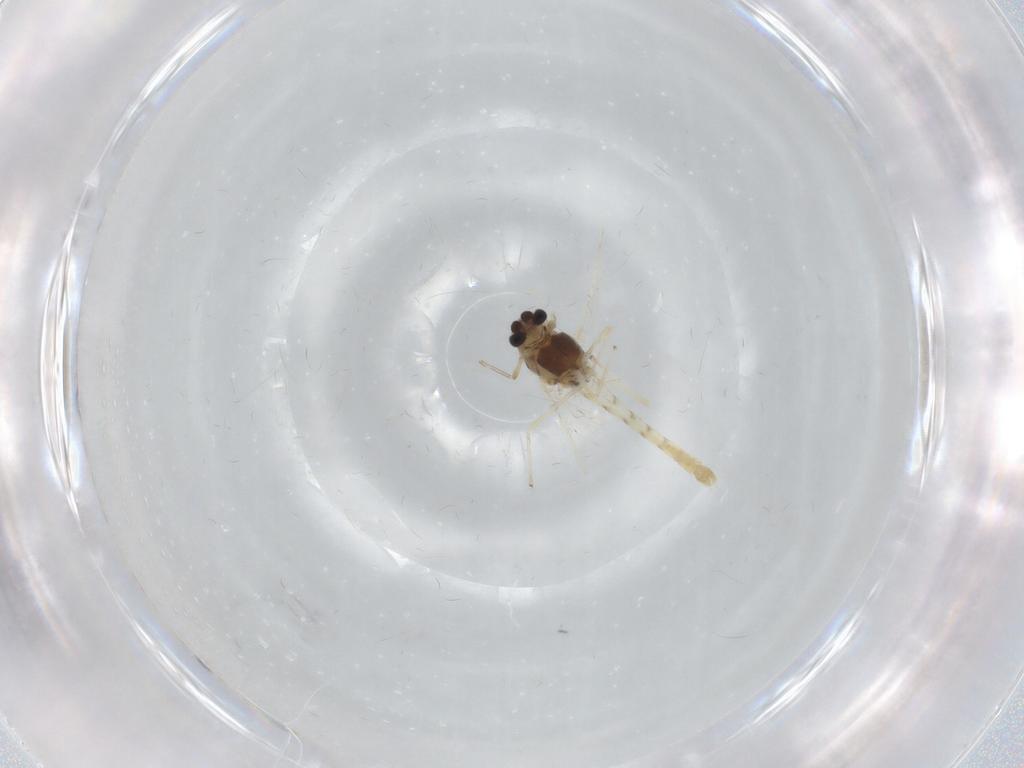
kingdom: Animalia
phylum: Arthropoda
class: Insecta
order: Diptera
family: Chironomidae
